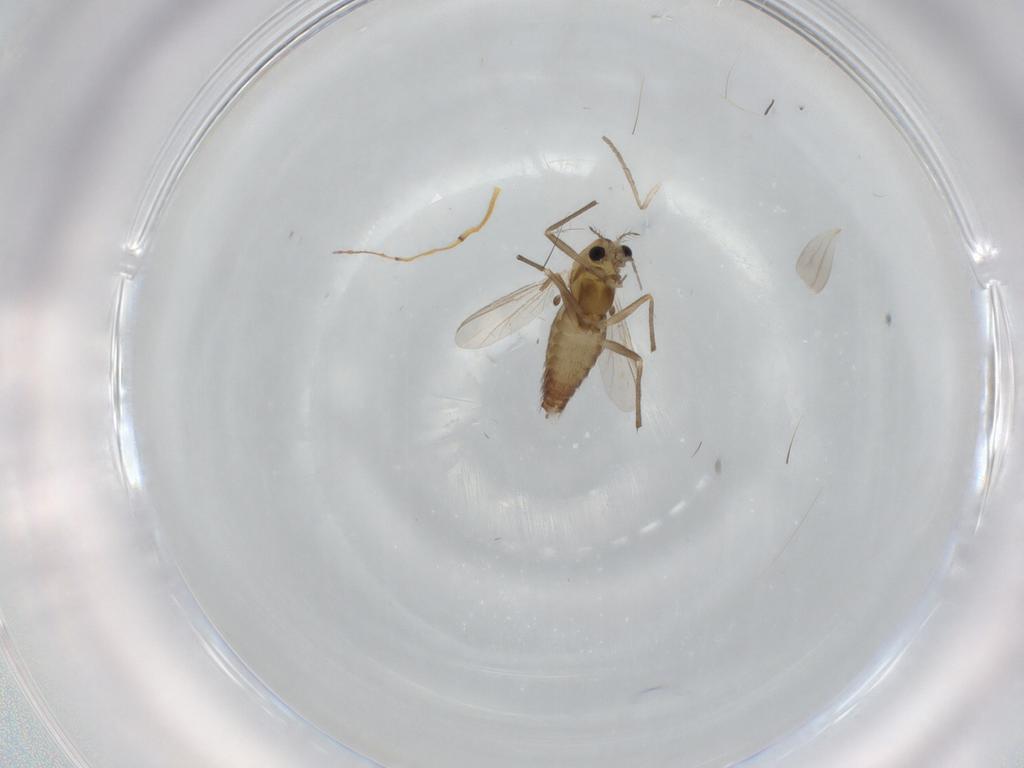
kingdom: Animalia
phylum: Arthropoda
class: Insecta
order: Diptera
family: Chironomidae
